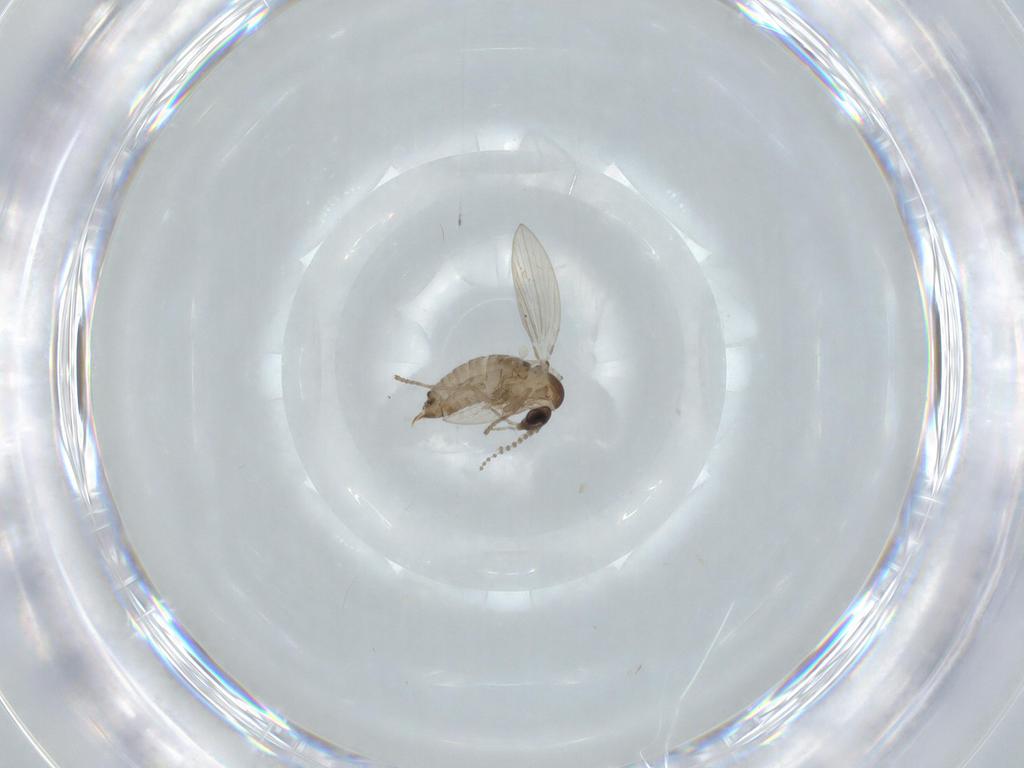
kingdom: Animalia
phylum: Arthropoda
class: Insecta
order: Diptera
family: Psychodidae
